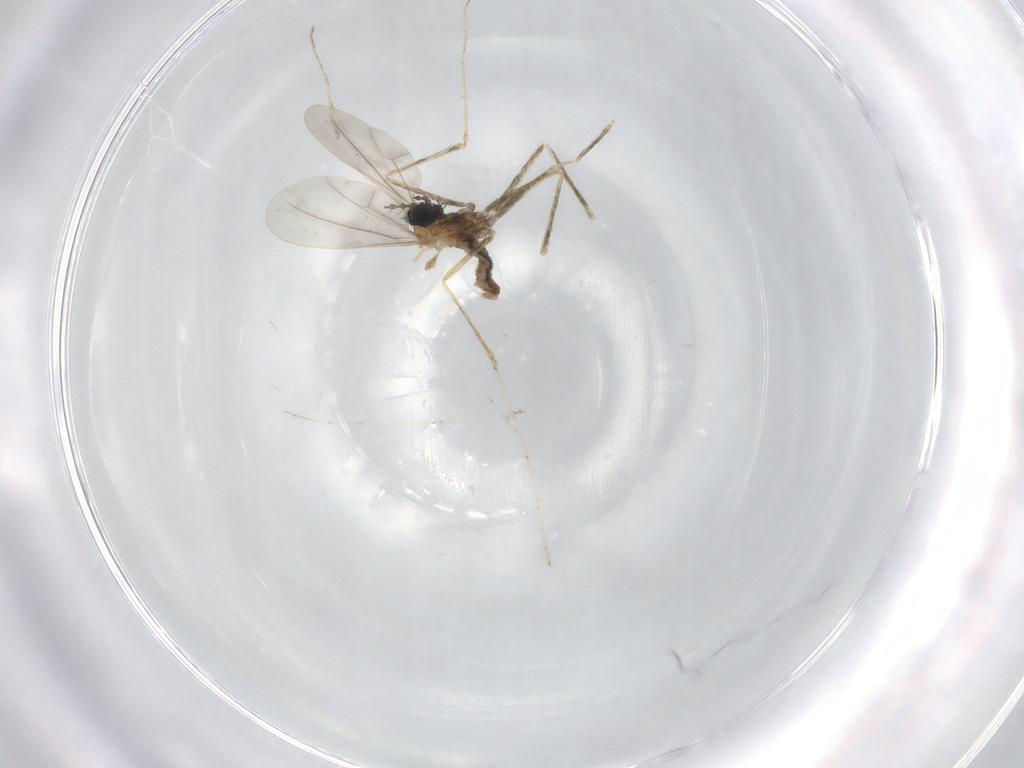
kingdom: Animalia
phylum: Arthropoda
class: Insecta
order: Diptera
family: Cecidomyiidae
